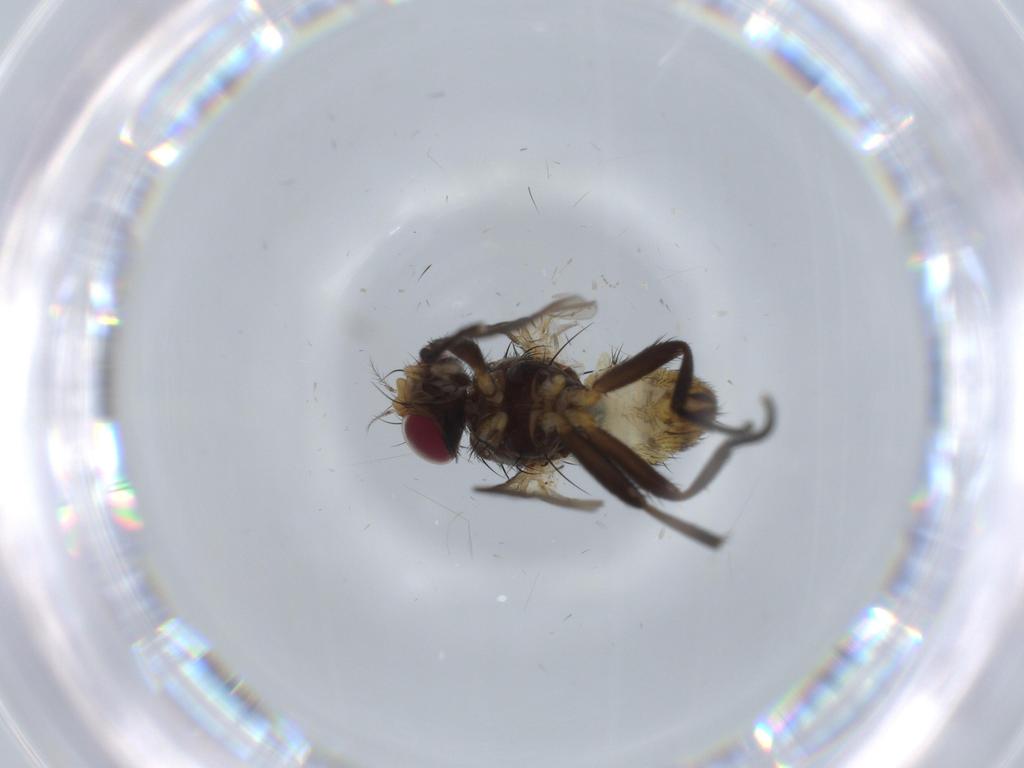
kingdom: Animalia
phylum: Arthropoda
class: Insecta
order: Diptera
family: Anthomyiidae
